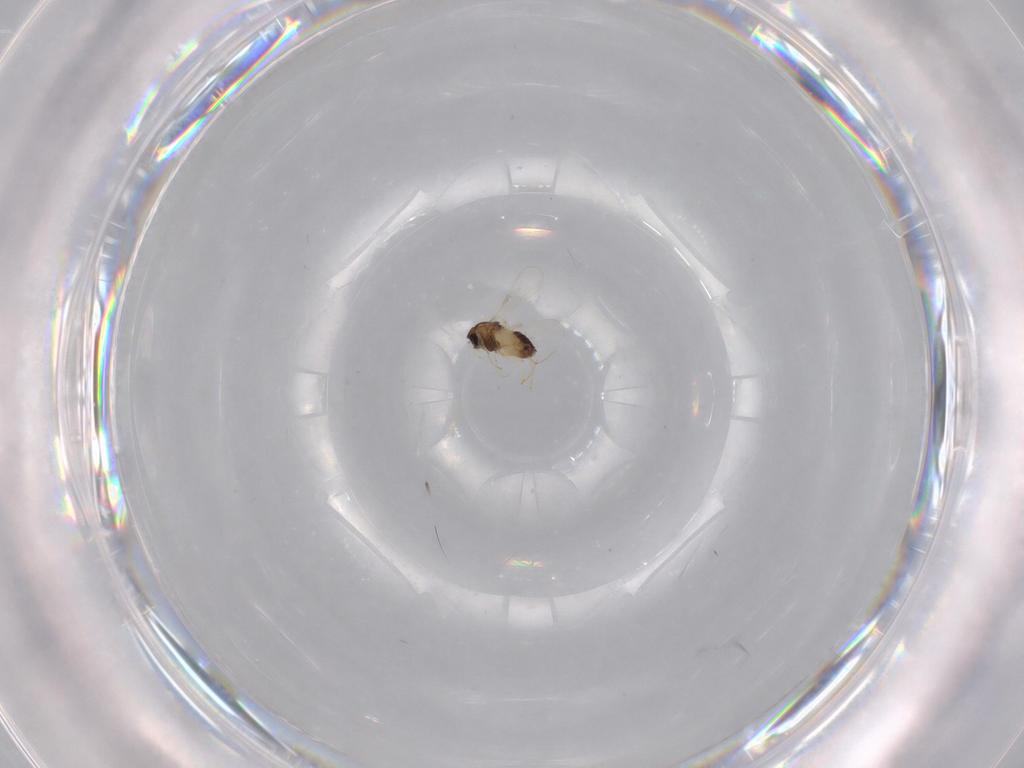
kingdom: Animalia
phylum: Arthropoda
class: Insecta
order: Diptera
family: Chironomidae
